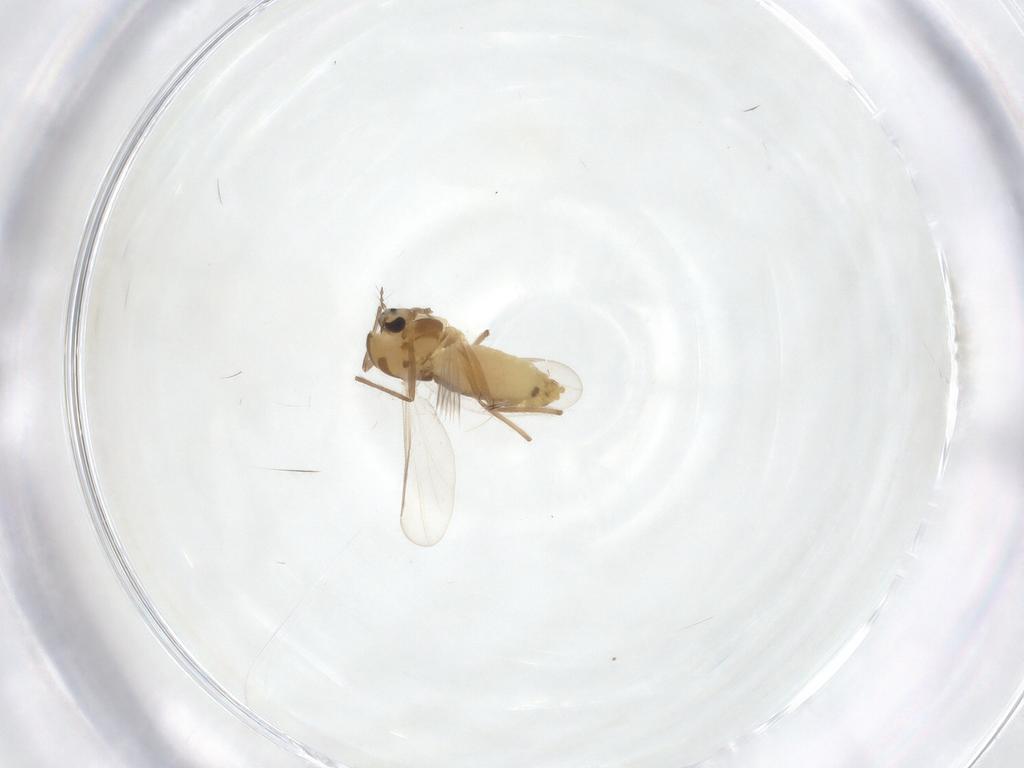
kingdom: Animalia
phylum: Arthropoda
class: Insecta
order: Diptera
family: Chironomidae
